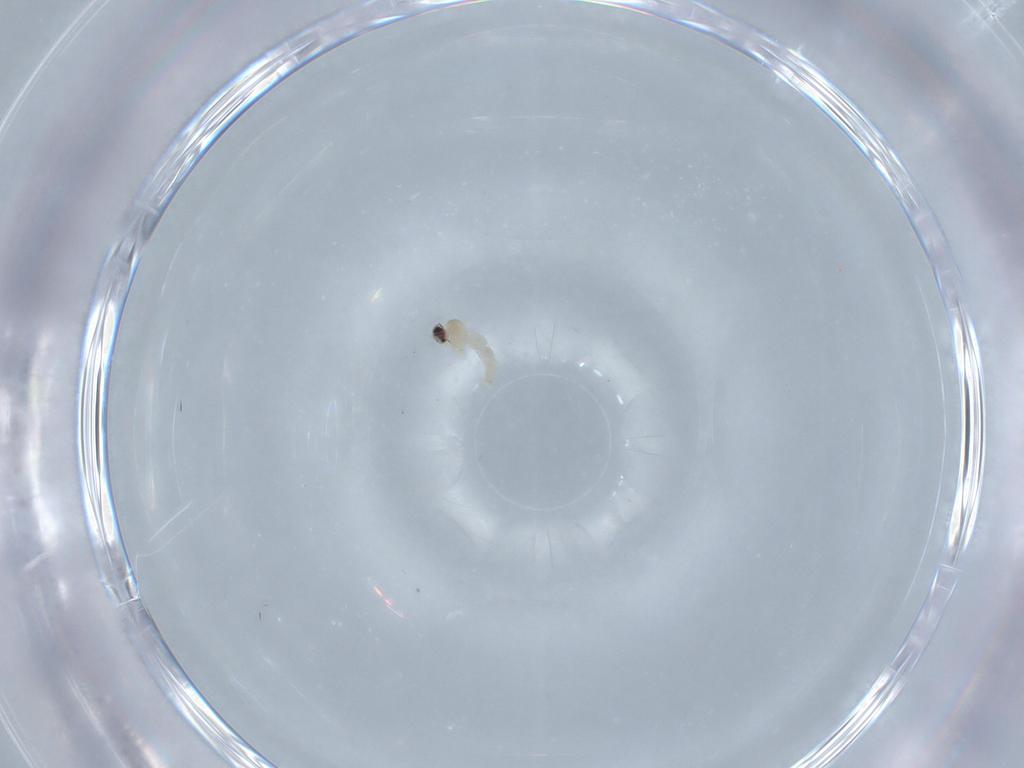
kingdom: Animalia
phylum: Arthropoda
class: Insecta
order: Diptera
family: Cecidomyiidae
